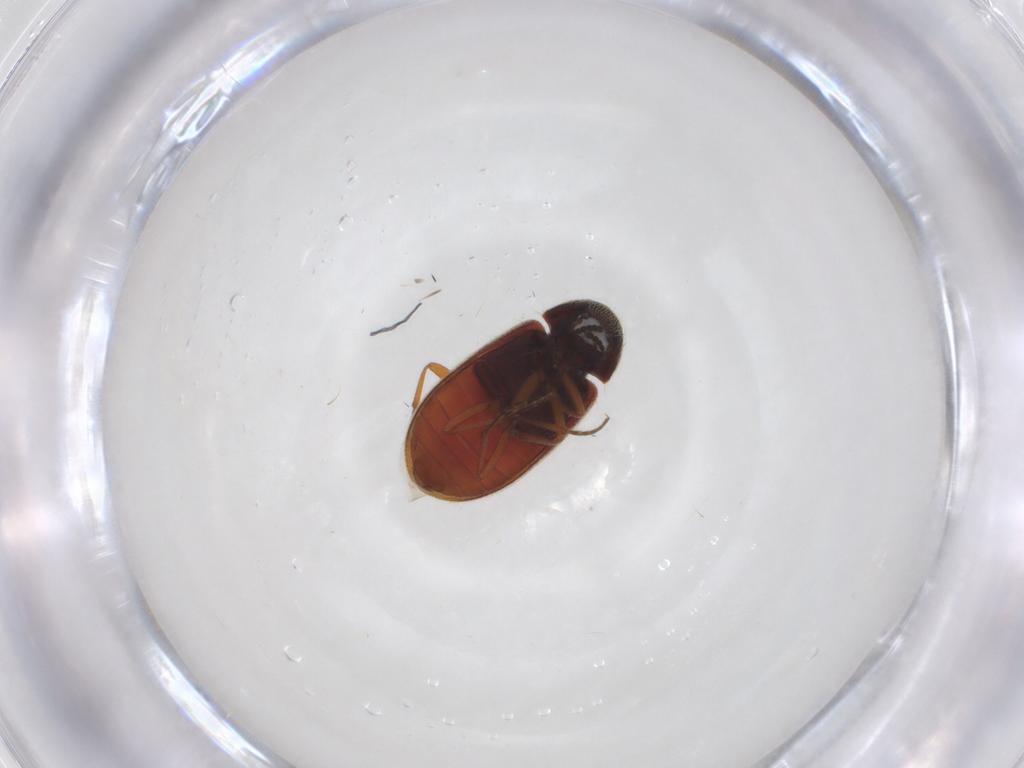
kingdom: Animalia
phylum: Arthropoda
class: Insecta
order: Coleoptera
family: Rhadalidae
